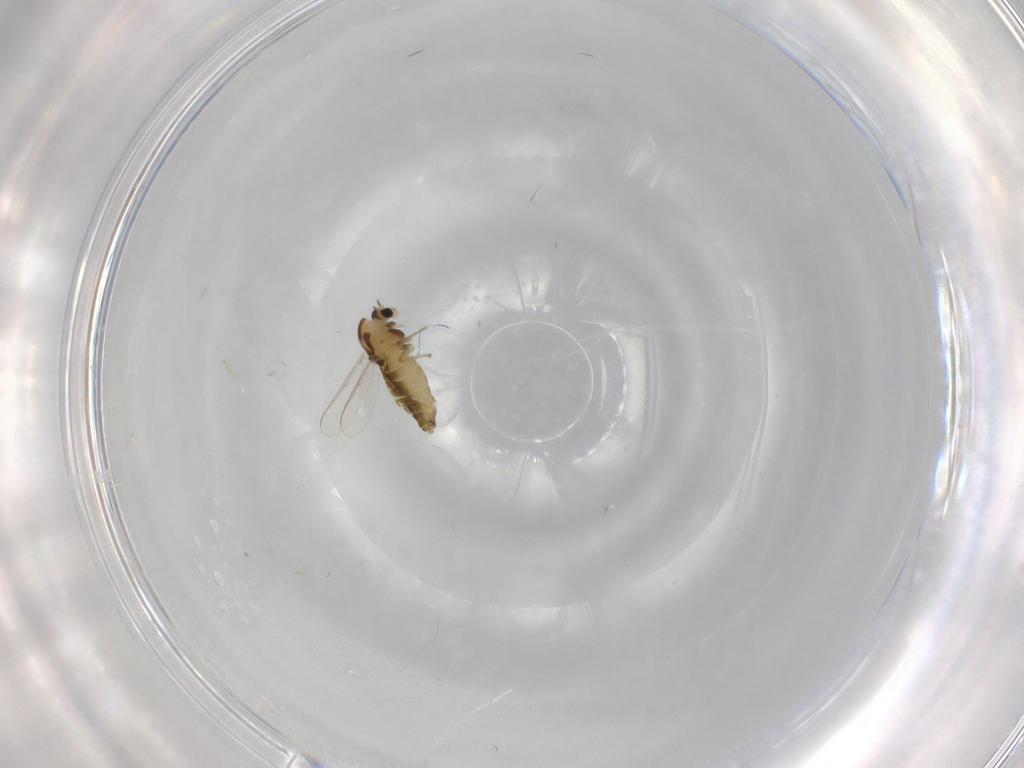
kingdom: Animalia
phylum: Arthropoda
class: Insecta
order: Diptera
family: Chironomidae
